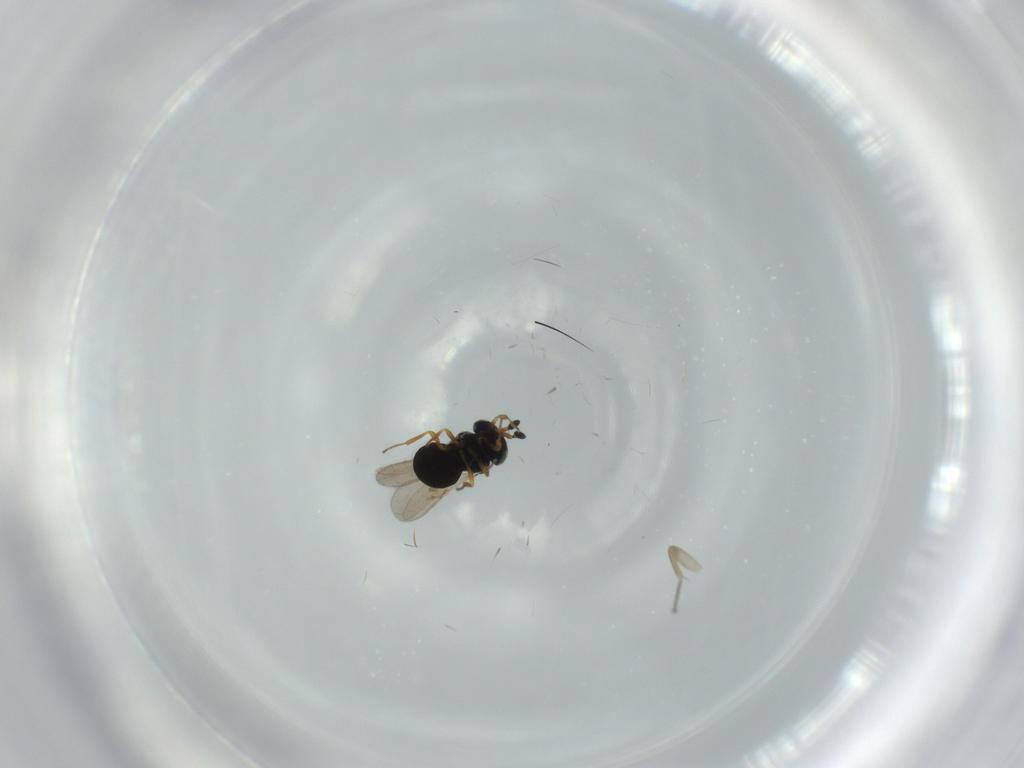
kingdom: Animalia
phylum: Arthropoda
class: Insecta
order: Hymenoptera
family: Scelionidae
